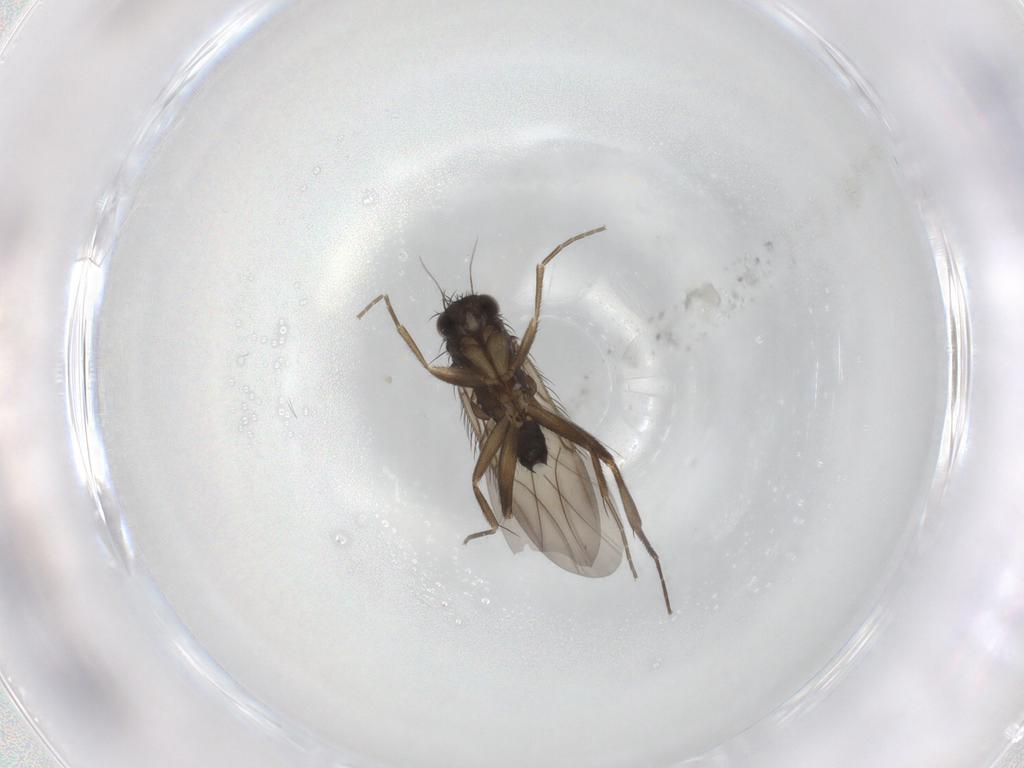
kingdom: Animalia
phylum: Arthropoda
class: Insecta
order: Diptera
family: Phoridae
